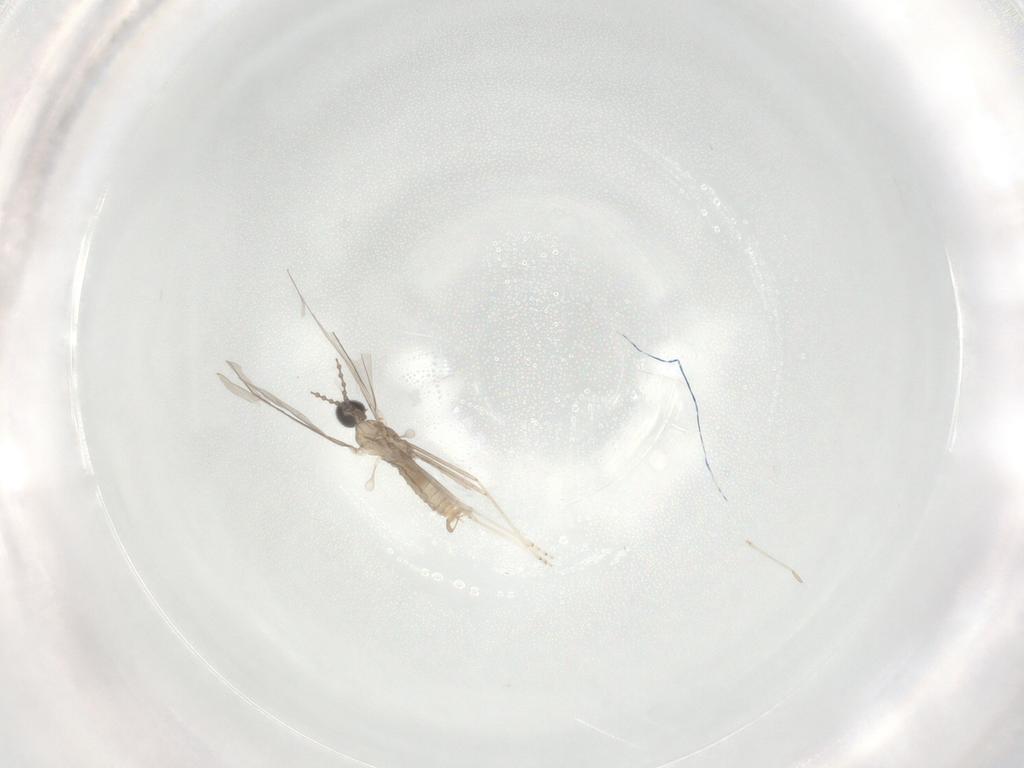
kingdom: Animalia
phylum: Arthropoda
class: Insecta
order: Diptera
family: Cecidomyiidae
